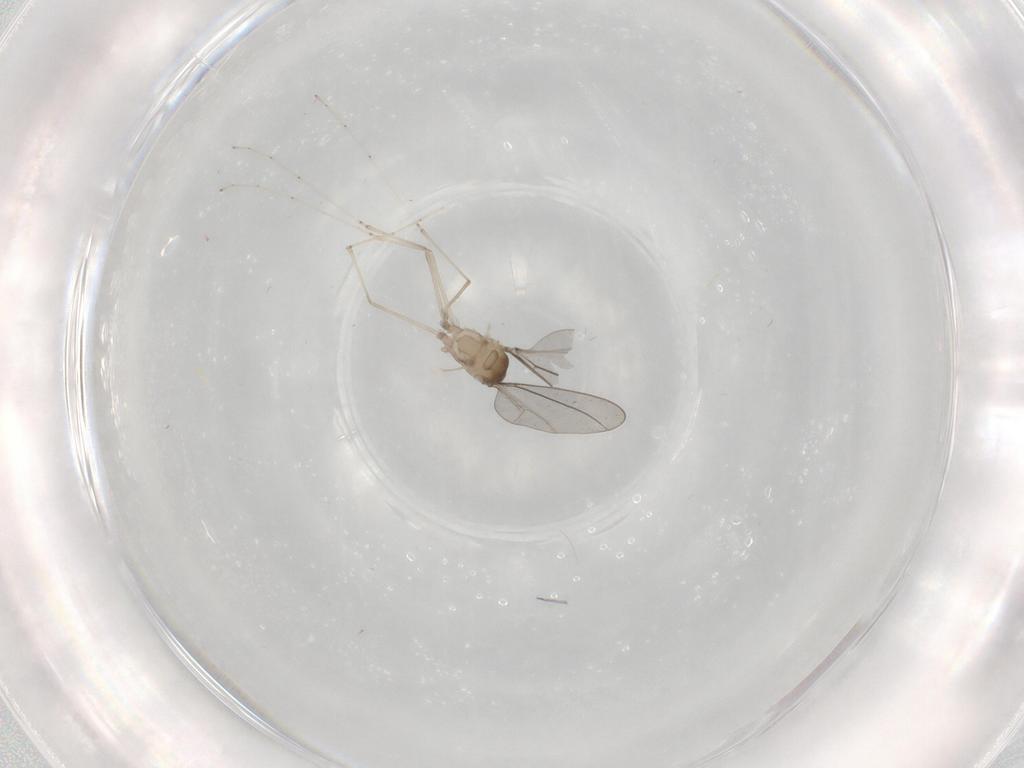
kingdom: Animalia
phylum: Arthropoda
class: Insecta
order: Diptera
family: Cecidomyiidae
